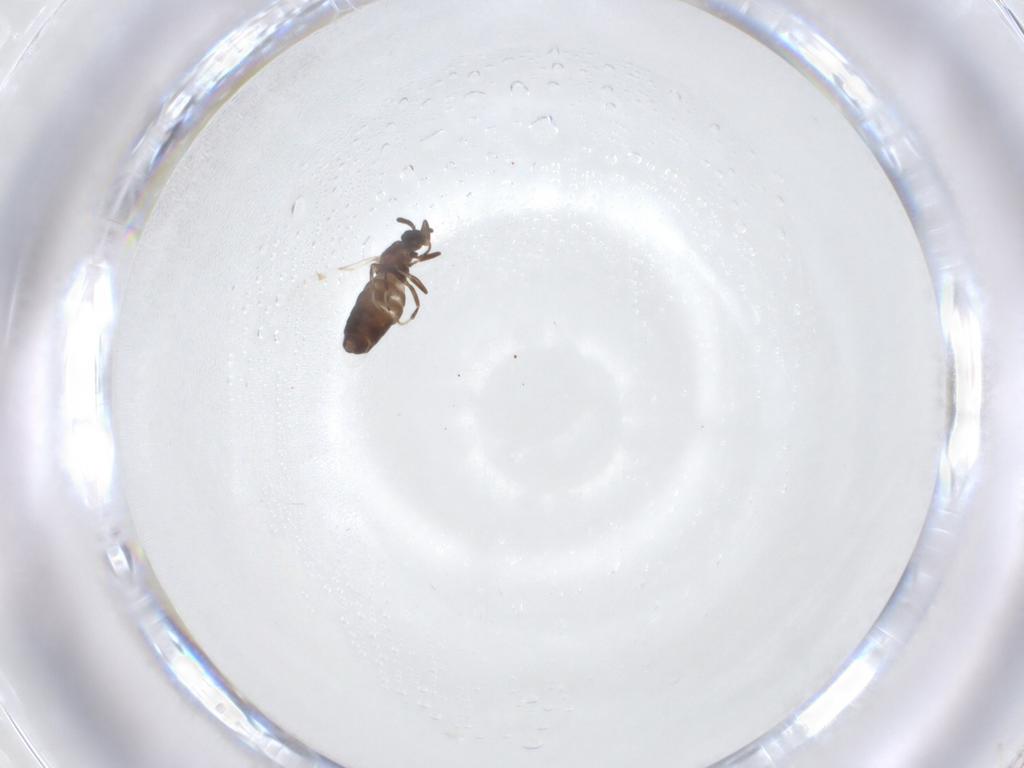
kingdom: Animalia
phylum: Arthropoda
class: Insecta
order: Diptera
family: Scatopsidae
